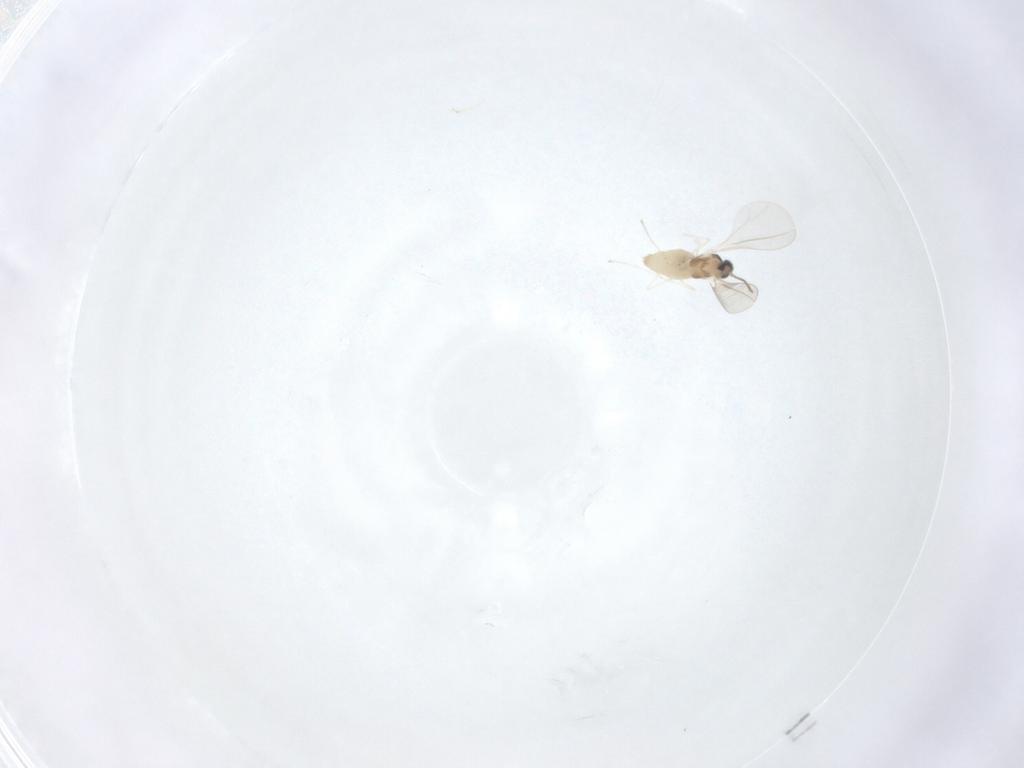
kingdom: Animalia
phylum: Arthropoda
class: Insecta
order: Diptera
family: Cecidomyiidae
